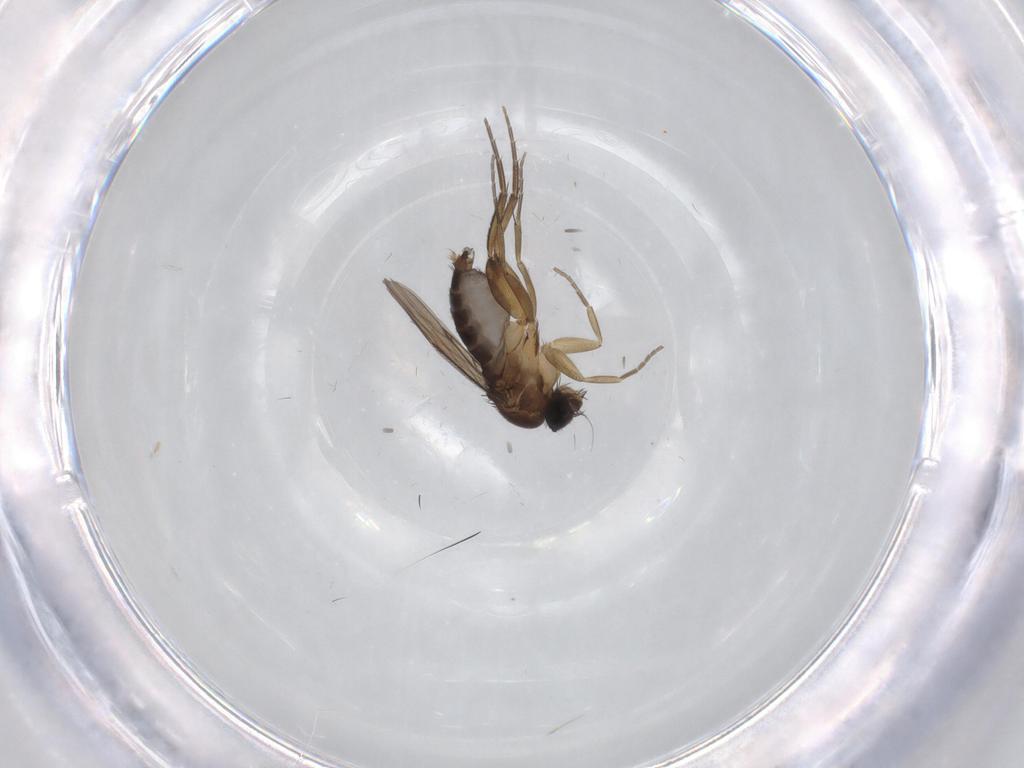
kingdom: Animalia
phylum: Arthropoda
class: Insecta
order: Diptera
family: Phoridae
